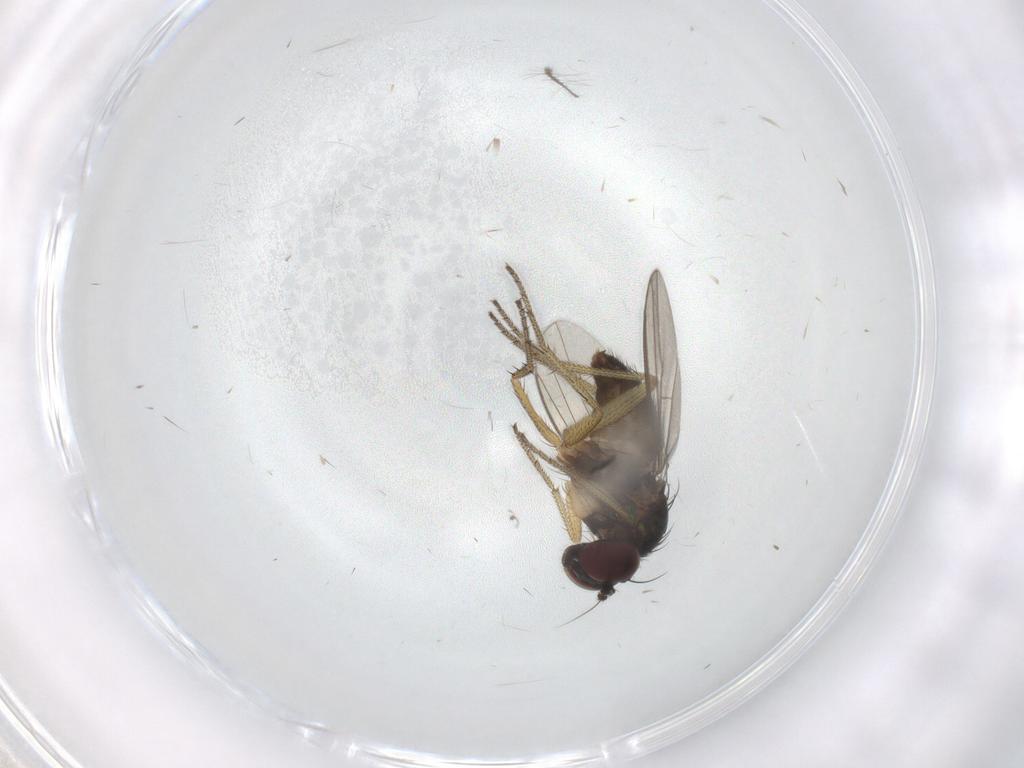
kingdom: Animalia
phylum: Arthropoda
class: Insecta
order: Diptera
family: Dolichopodidae
